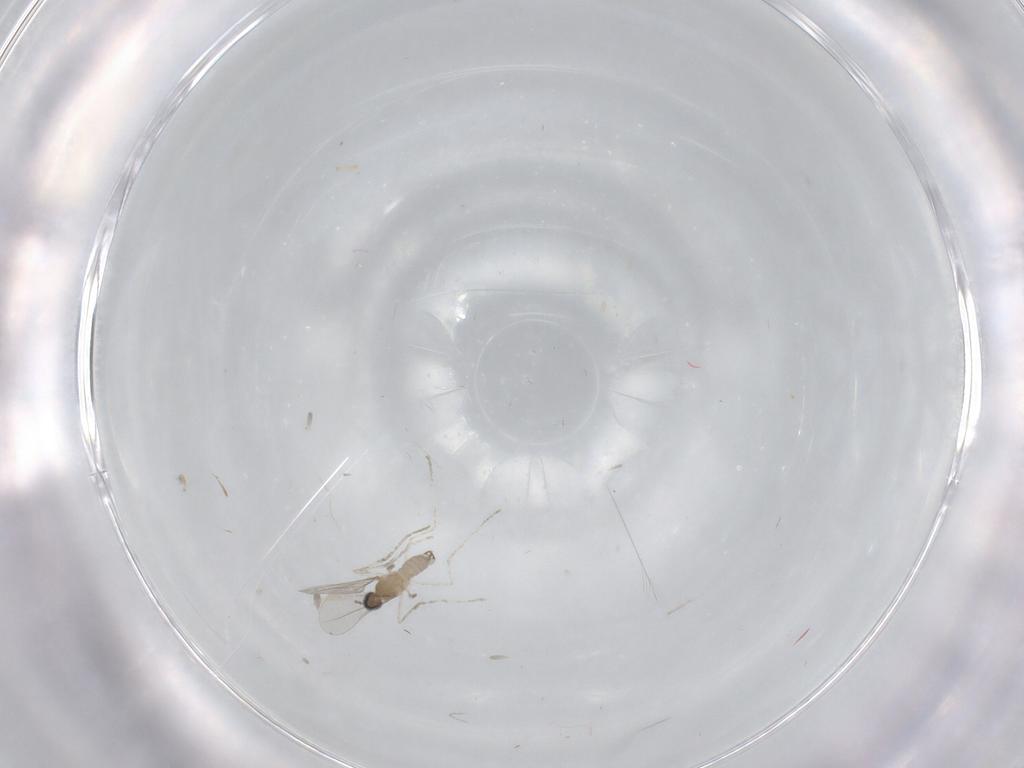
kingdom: Animalia
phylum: Arthropoda
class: Insecta
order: Diptera
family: Cecidomyiidae
